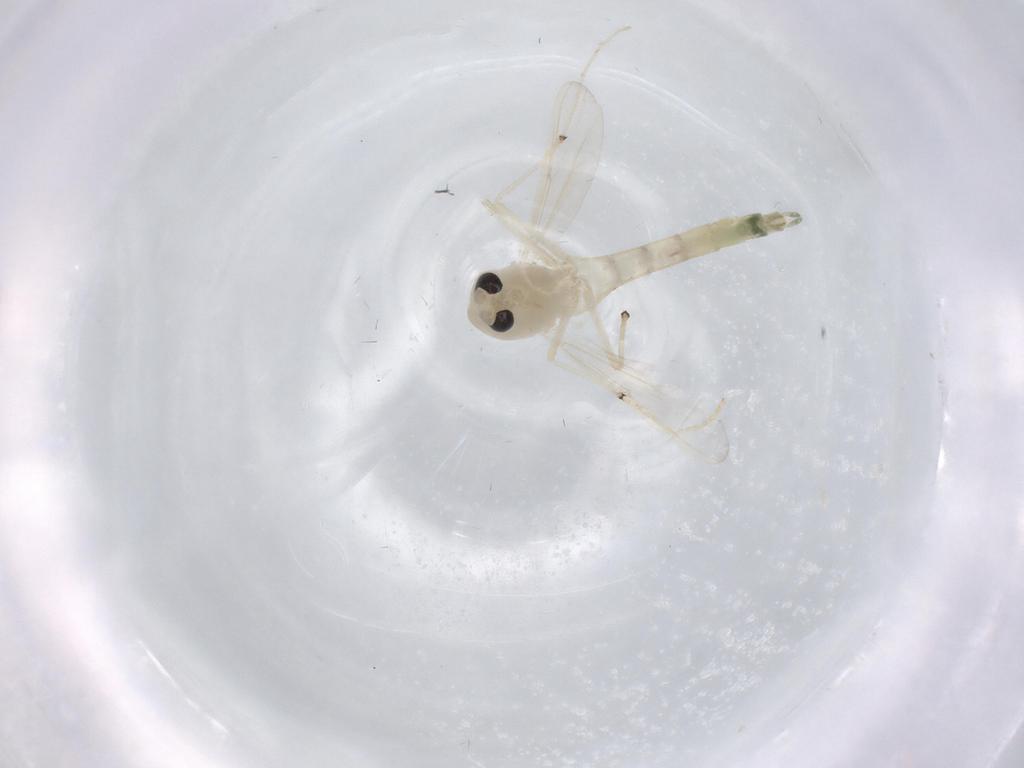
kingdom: Animalia
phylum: Arthropoda
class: Insecta
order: Diptera
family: Chironomidae
